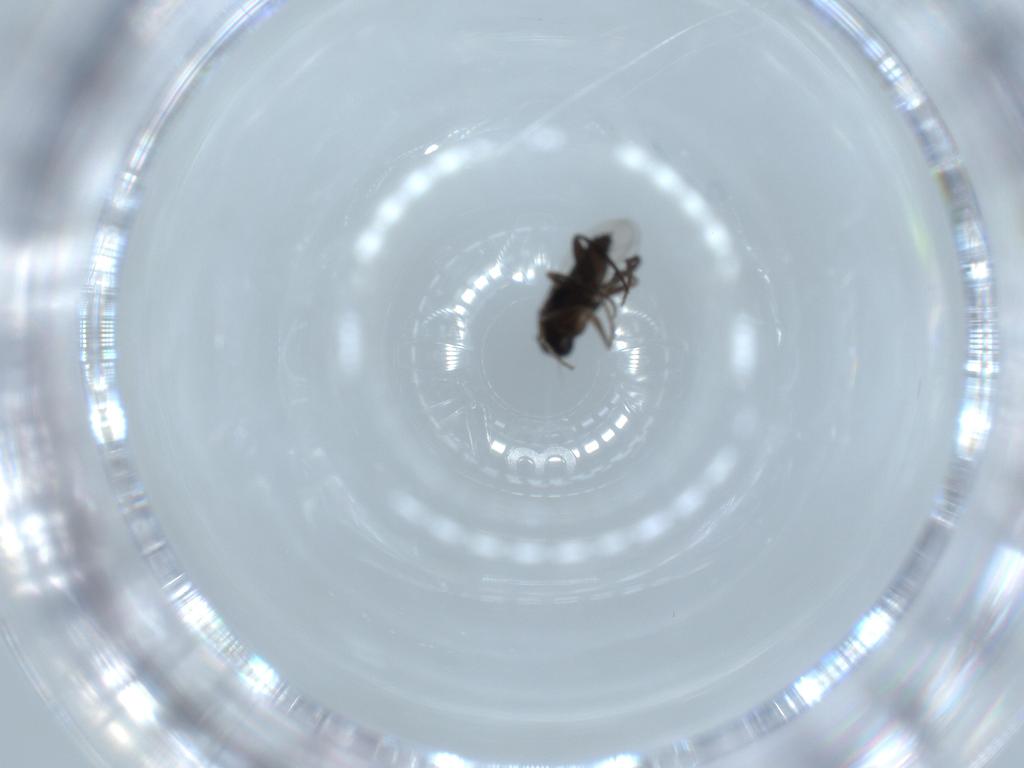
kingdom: Animalia
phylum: Arthropoda
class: Insecta
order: Diptera
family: Phoridae
